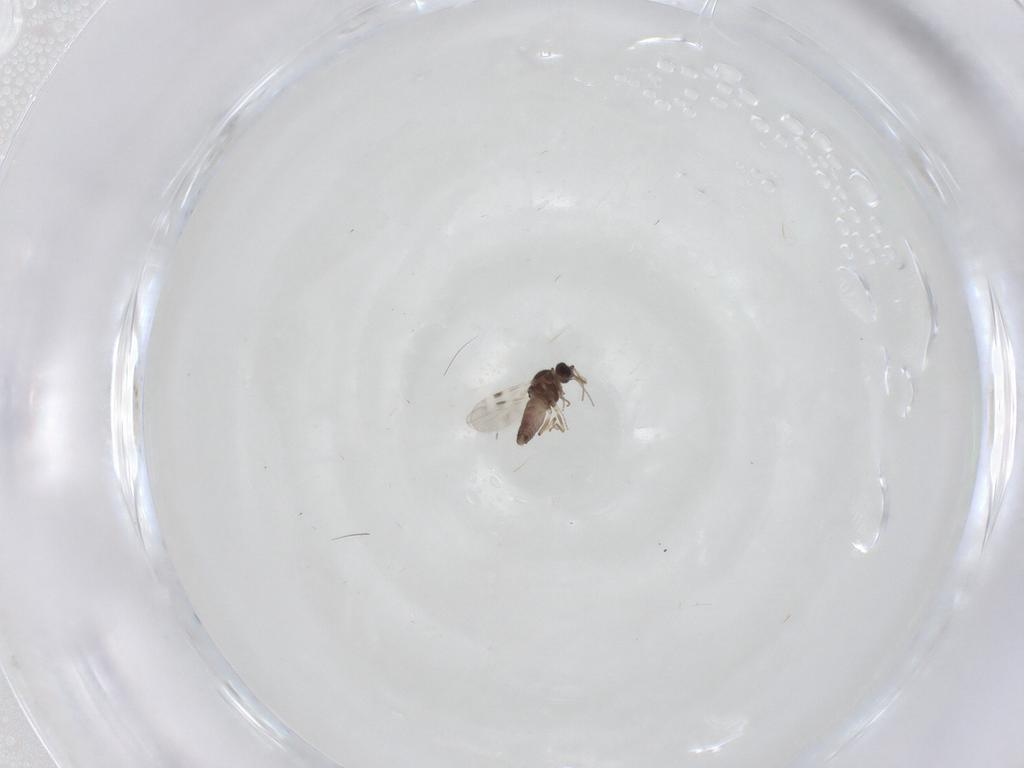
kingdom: Animalia
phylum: Arthropoda
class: Insecta
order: Diptera
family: Cecidomyiidae
